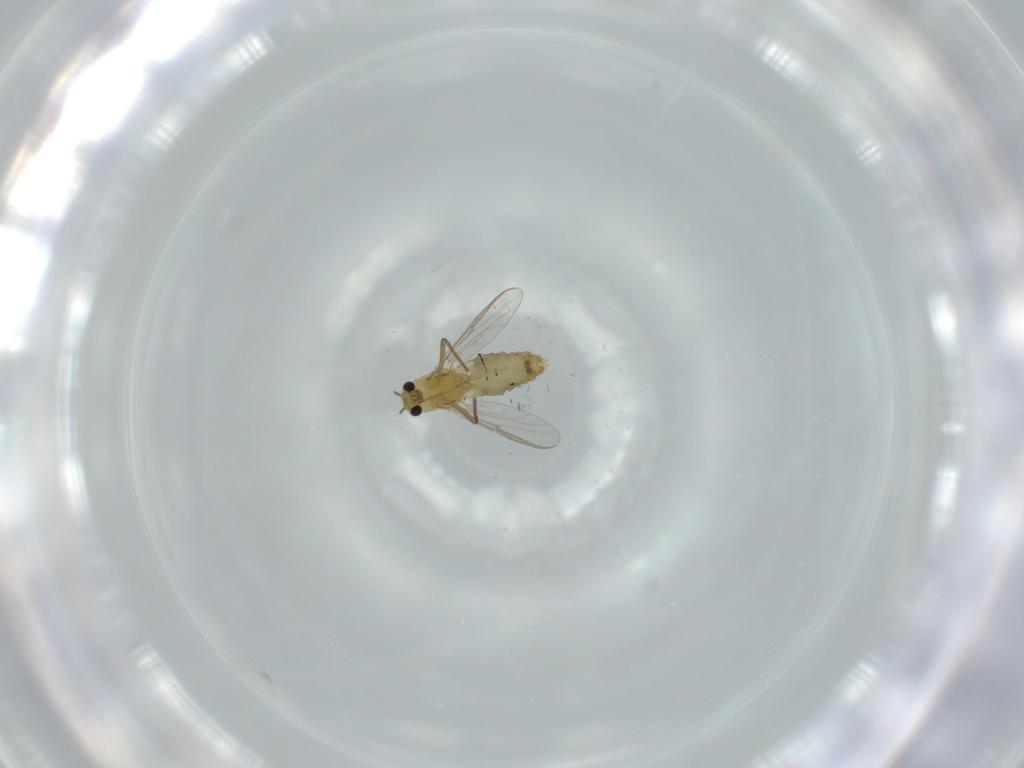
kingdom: Animalia
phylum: Arthropoda
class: Insecta
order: Diptera
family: Chironomidae
